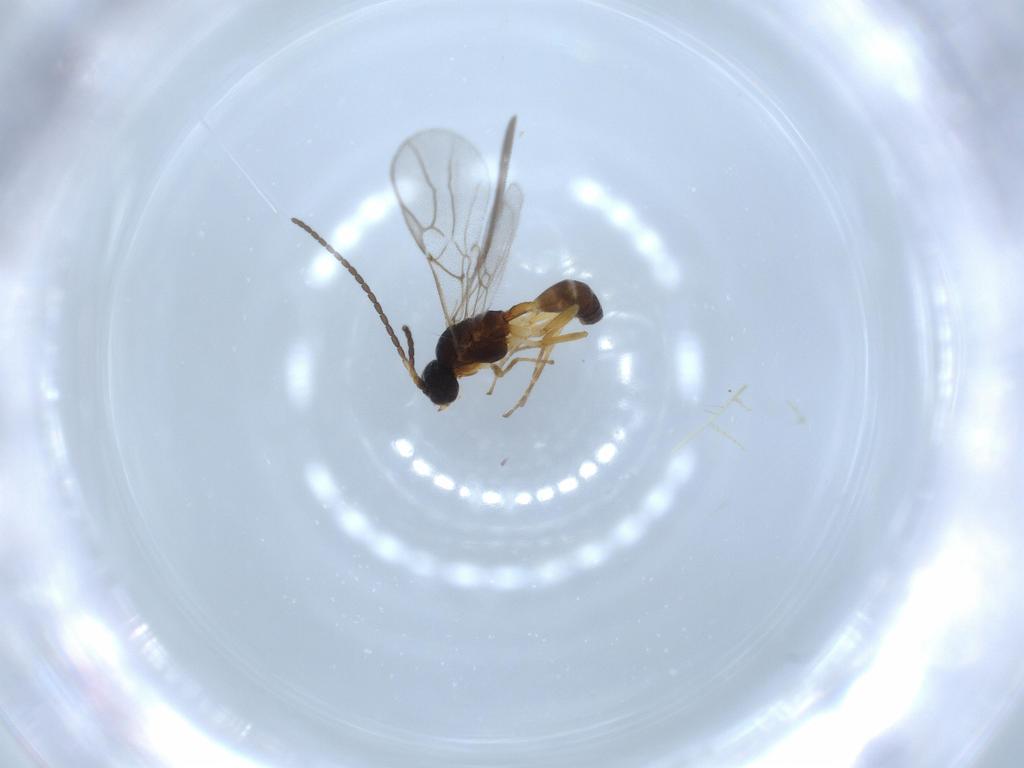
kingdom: Animalia
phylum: Arthropoda
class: Insecta
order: Hymenoptera
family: Braconidae
